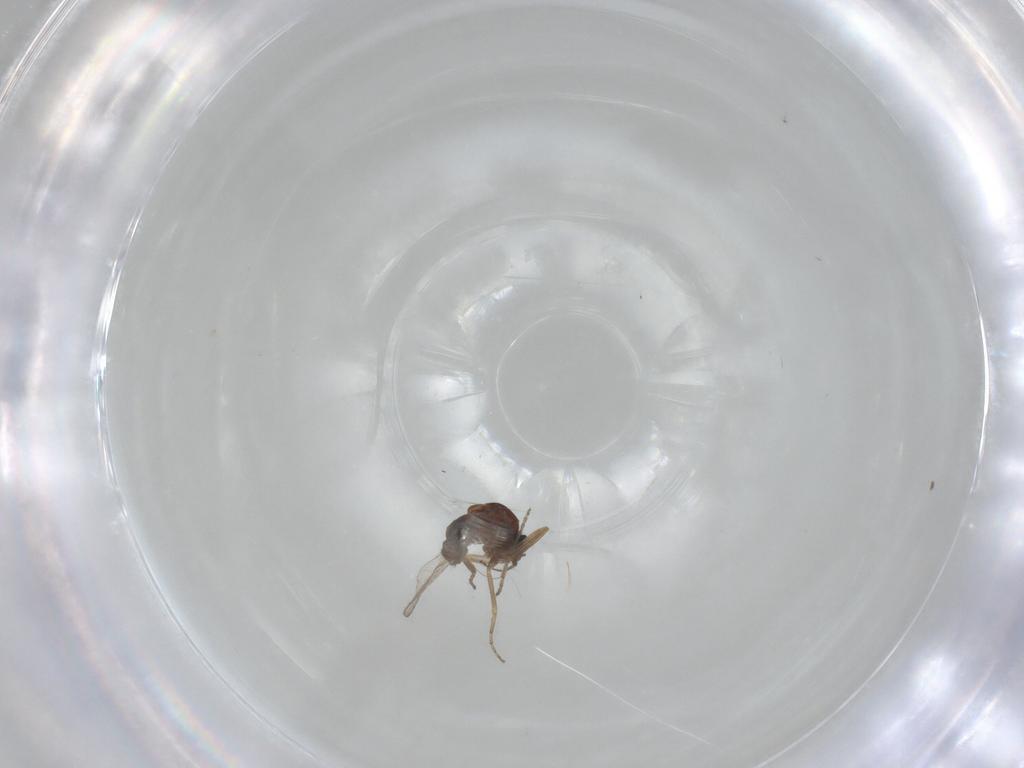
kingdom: Animalia
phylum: Arthropoda
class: Insecta
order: Diptera
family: Ceratopogonidae
